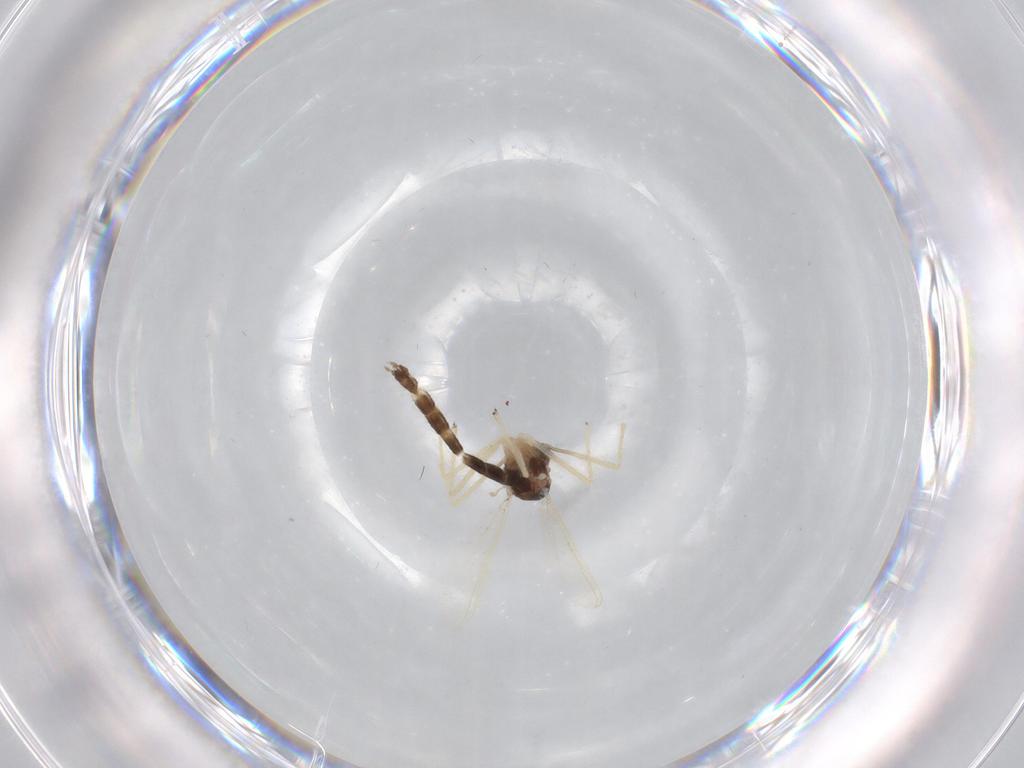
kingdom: Animalia
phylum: Arthropoda
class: Insecta
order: Diptera
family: Chironomidae
